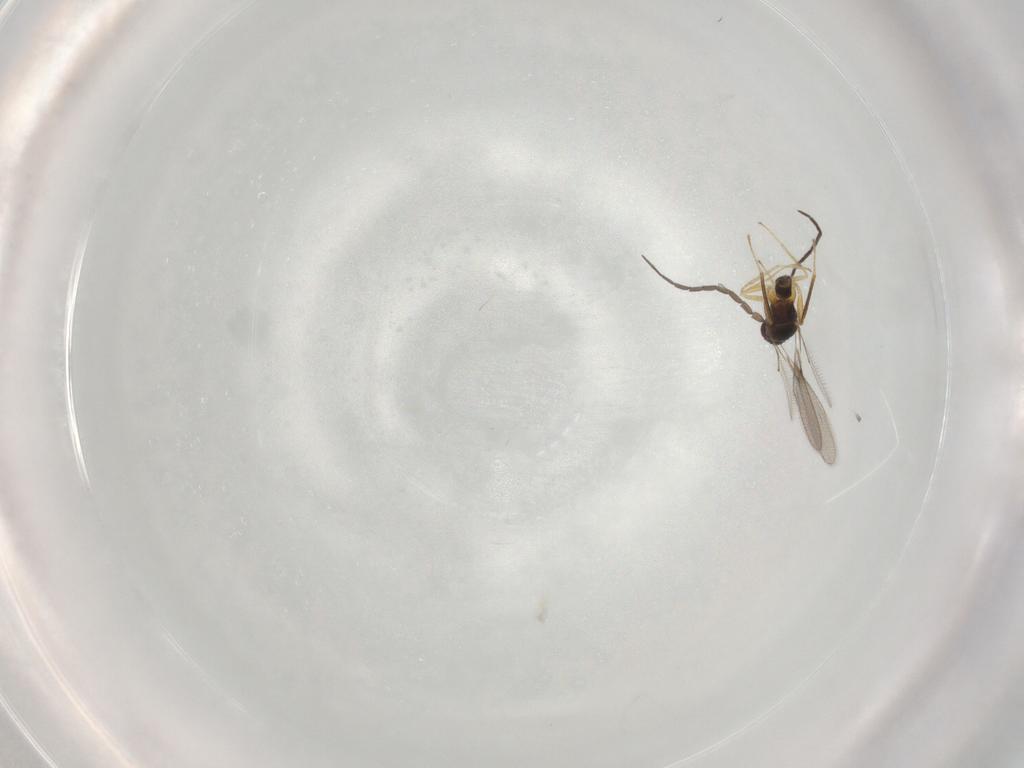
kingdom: Animalia
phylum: Arthropoda
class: Insecta
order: Hymenoptera
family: Mymaridae
